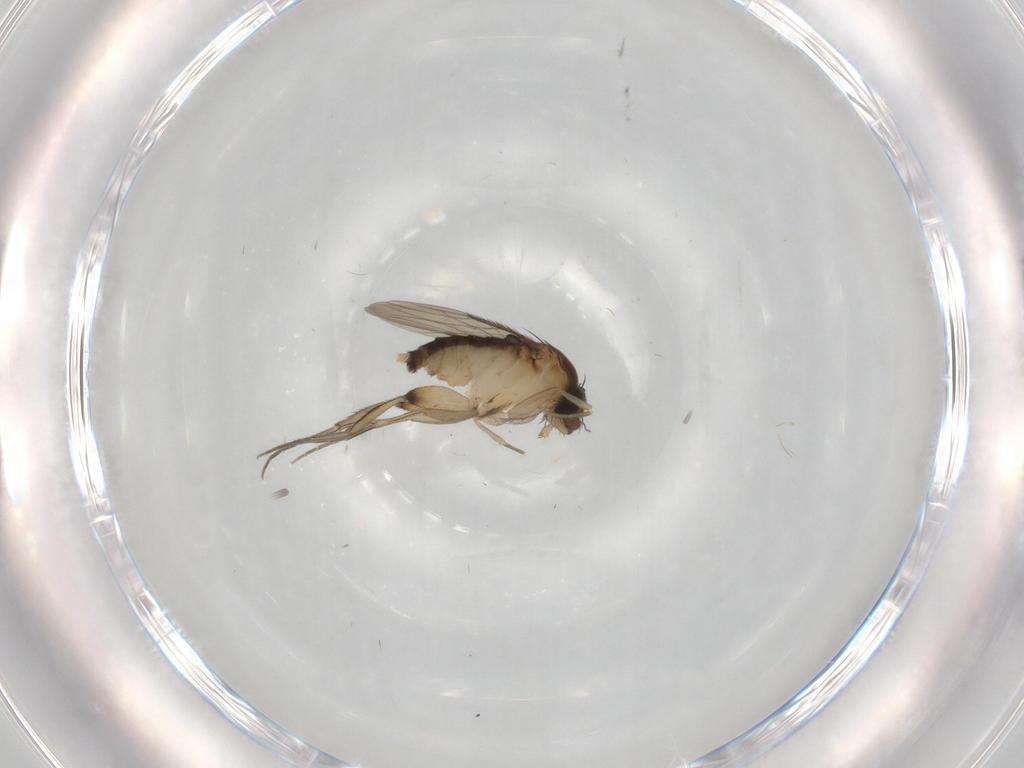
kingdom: Animalia
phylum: Arthropoda
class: Insecta
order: Diptera
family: Phoridae
